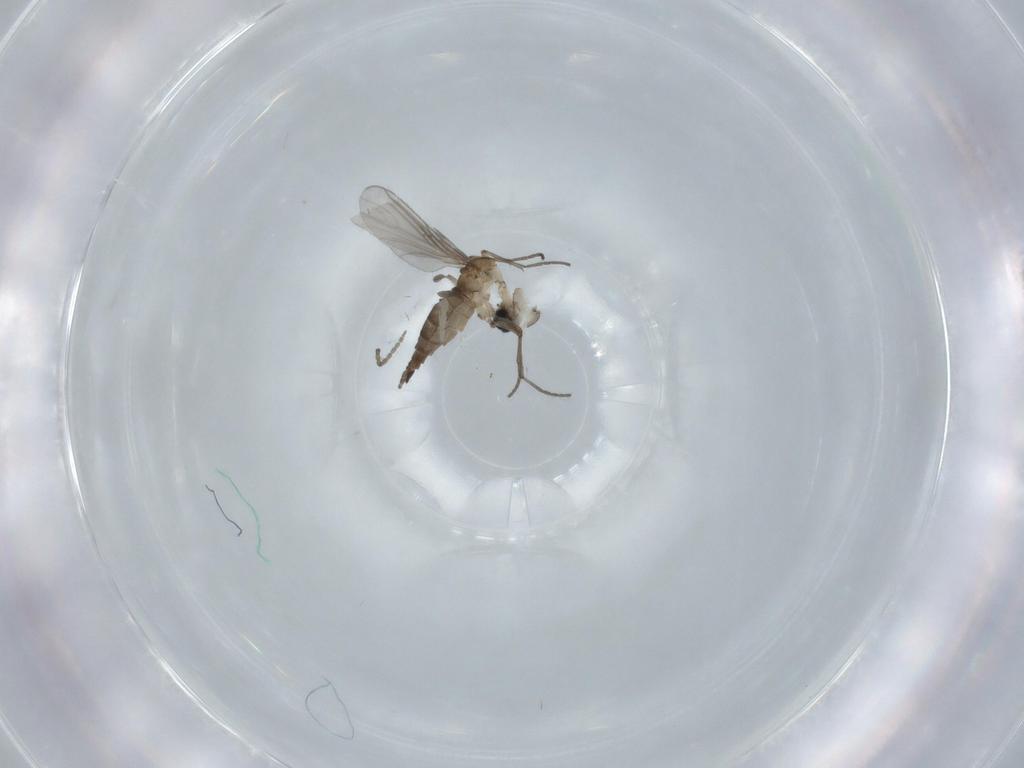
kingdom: Animalia
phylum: Arthropoda
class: Insecta
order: Diptera
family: Sciaridae
